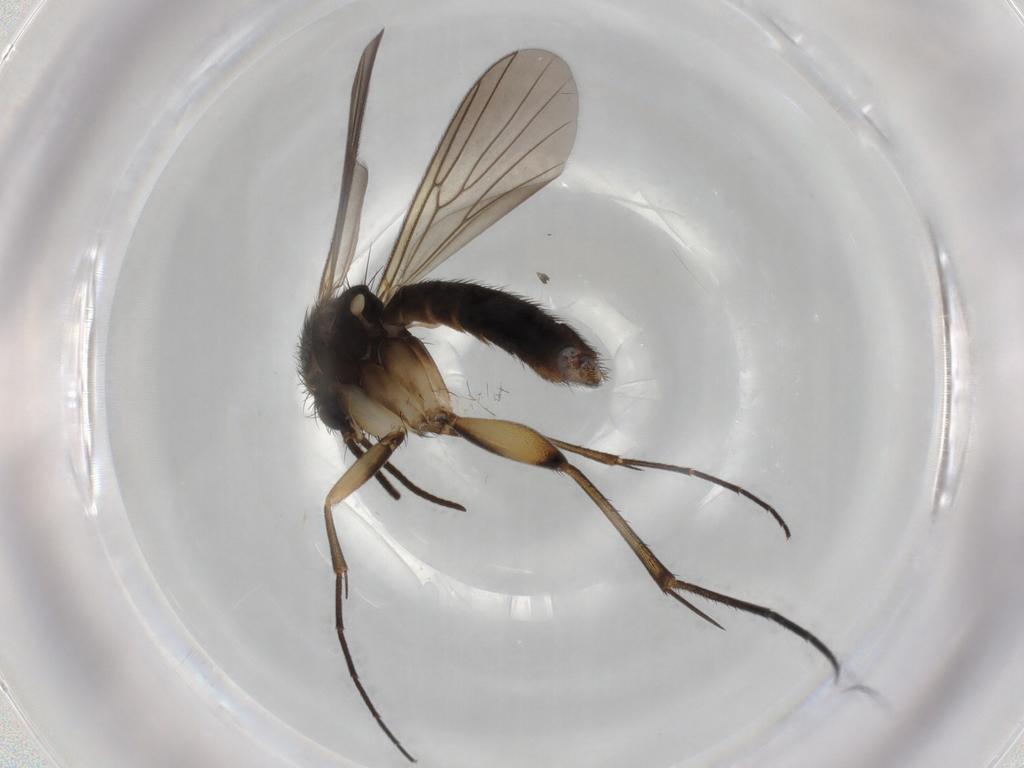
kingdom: Animalia
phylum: Arthropoda
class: Insecta
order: Diptera
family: Mycetophilidae
